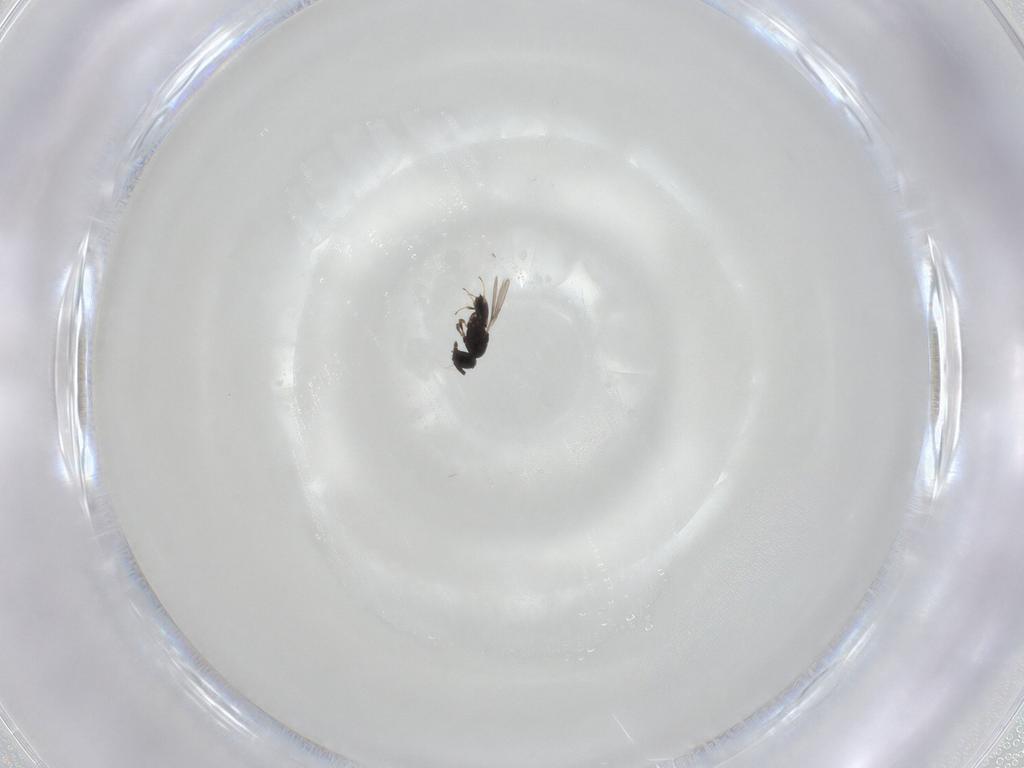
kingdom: Animalia
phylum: Arthropoda
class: Insecta
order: Hymenoptera
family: Scelionidae
